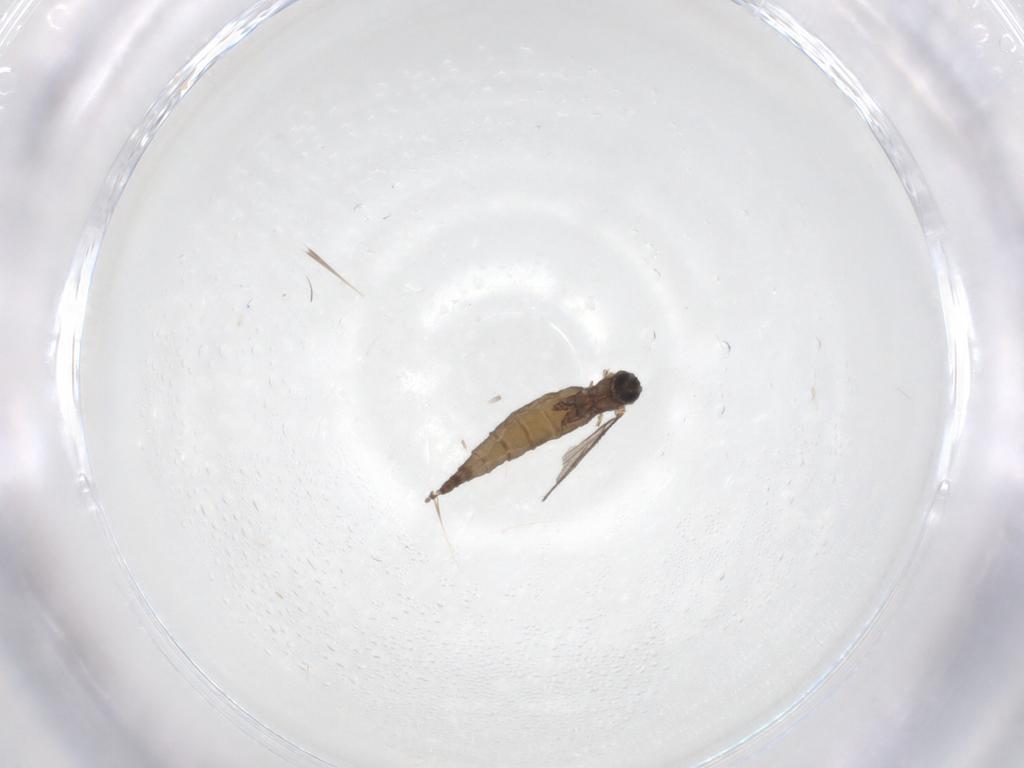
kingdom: Animalia
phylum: Arthropoda
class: Insecta
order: Diptera
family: Sciaridae
